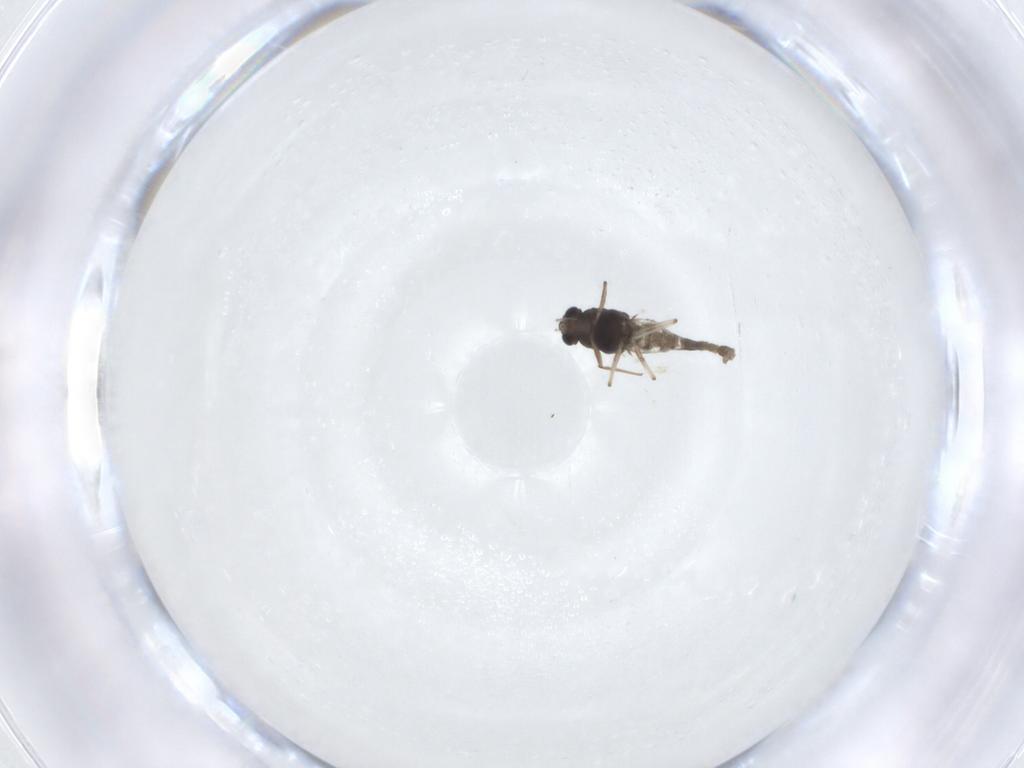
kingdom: Animalia
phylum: Arthropoda
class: Insecta
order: Diptera
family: Chironomidae
